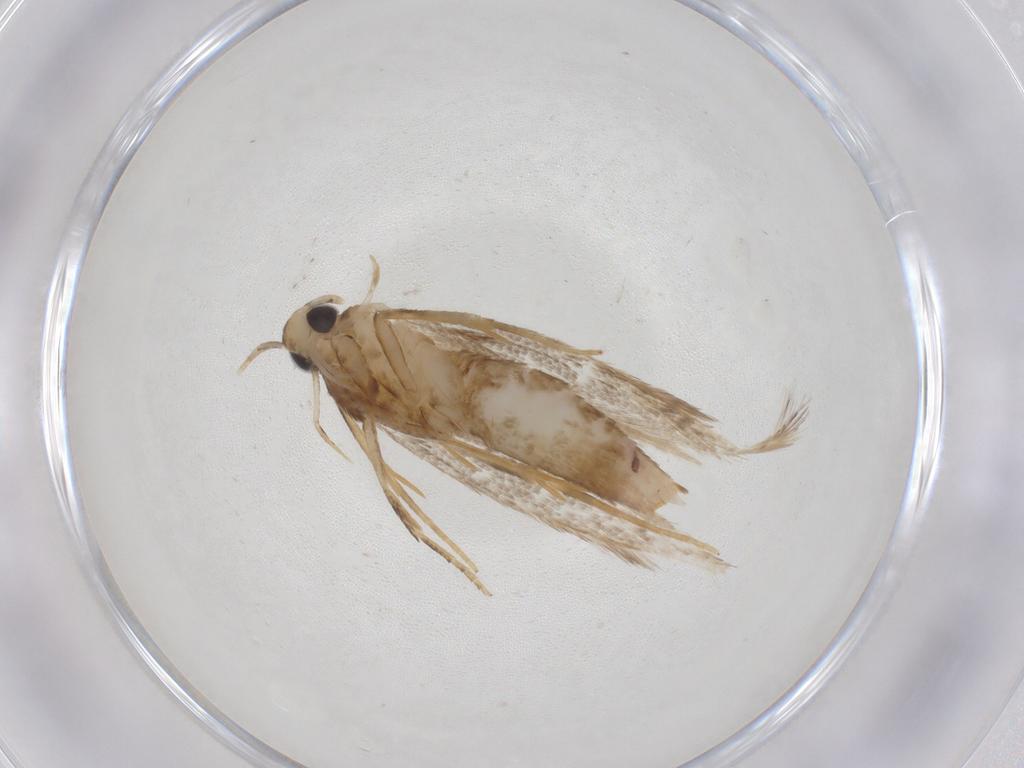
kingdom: Animalia
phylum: Arthropoda
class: Insecta
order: Lepidoptera
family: Coleophoridae
